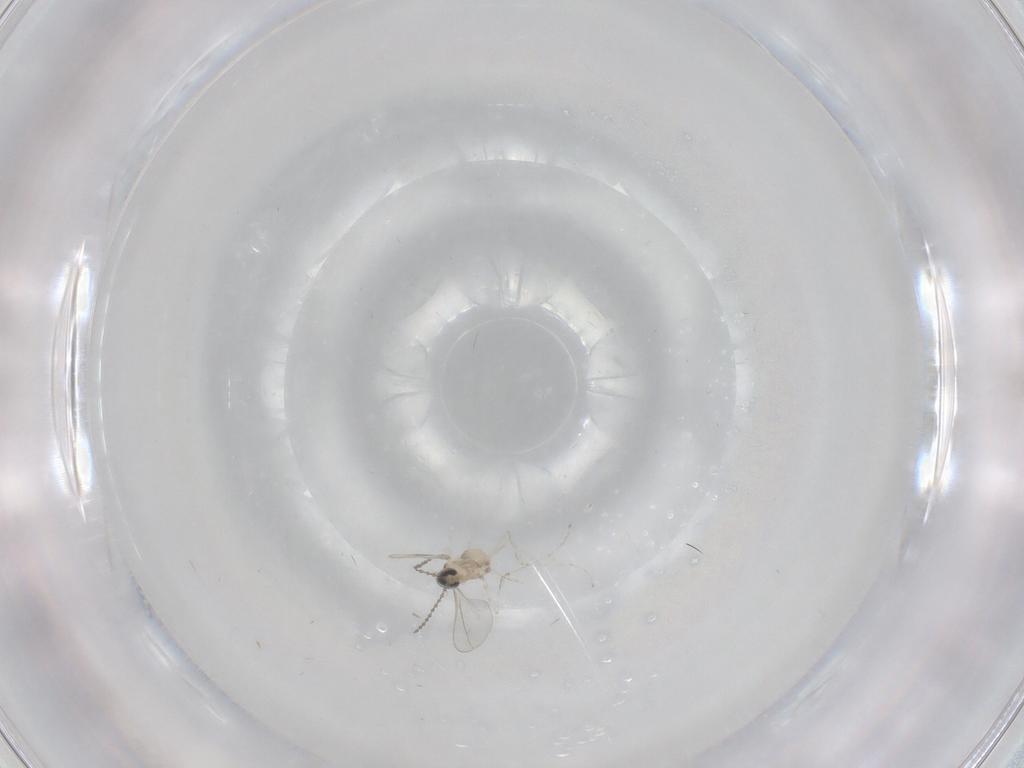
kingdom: Animalia
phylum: Arthropoda
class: Insecta
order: Diptera
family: Cecidomyiidae
